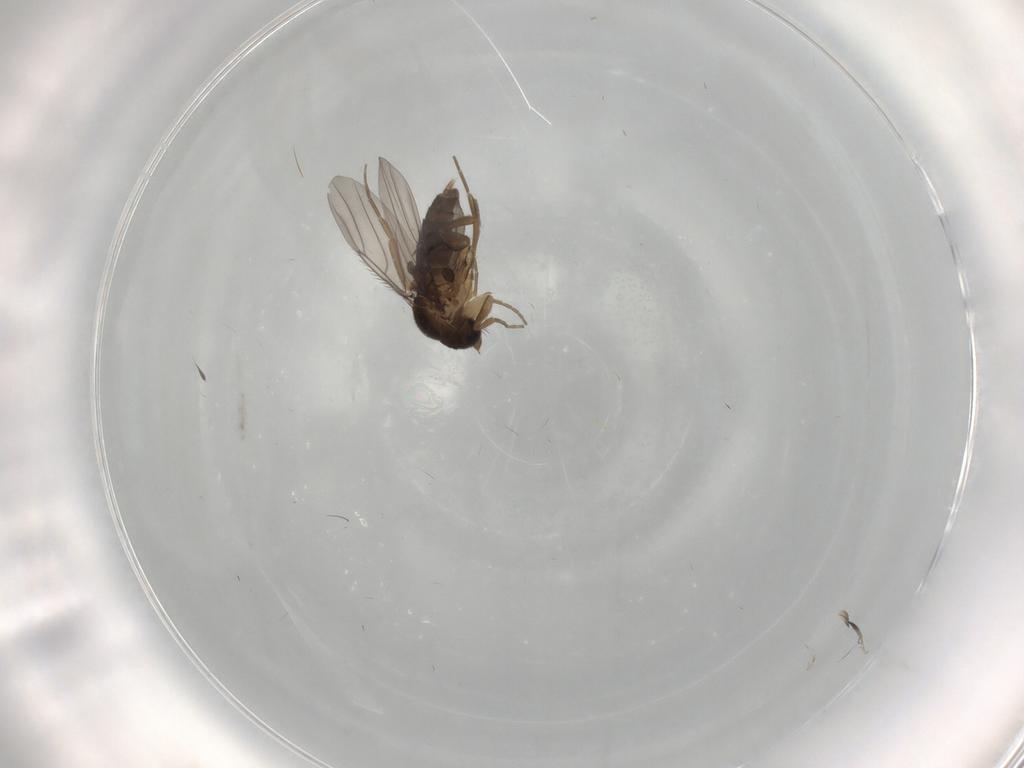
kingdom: Animalia
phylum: Arthropoda
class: Insecta
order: Diptera
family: Phoridae
